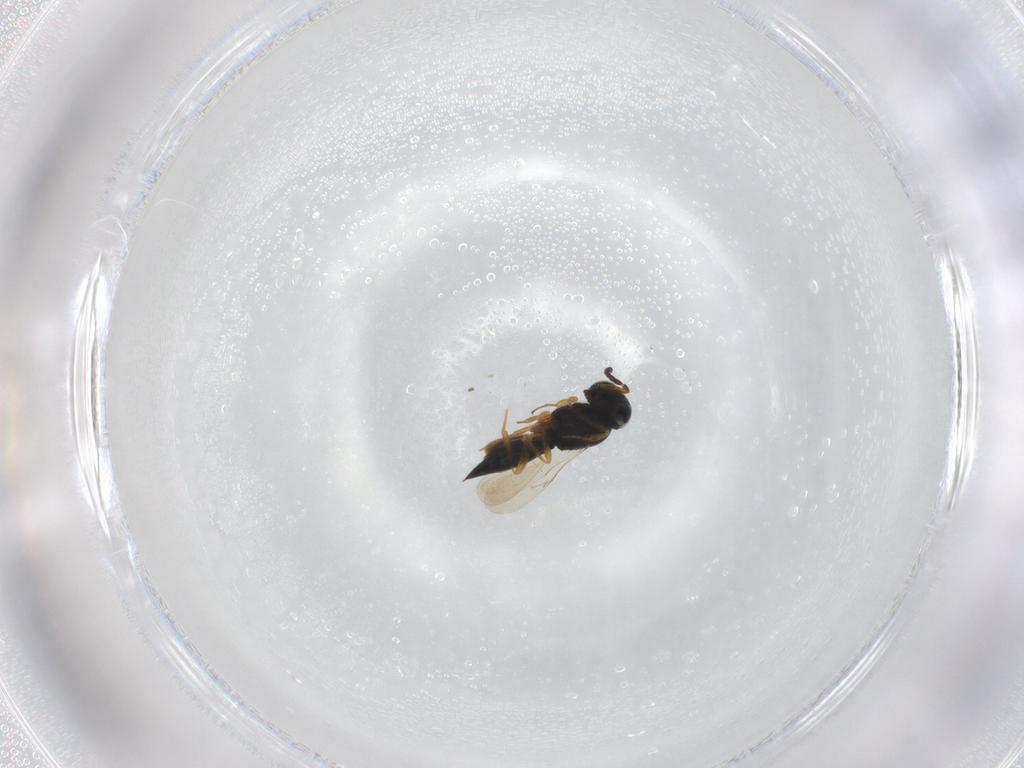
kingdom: Animalia
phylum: Arthropoda
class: Insecta
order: Hymenoptera
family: Scelionidae
